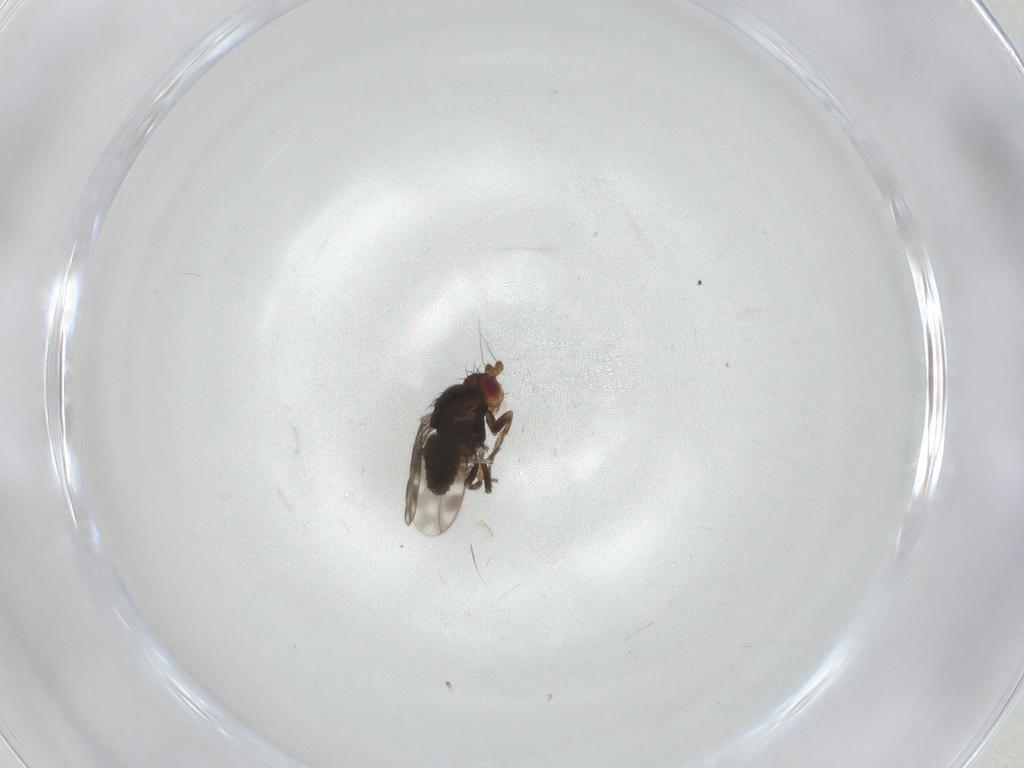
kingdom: Animalia
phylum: Arthropoda
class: Insecta
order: Diptera
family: Sphaeroceridae
